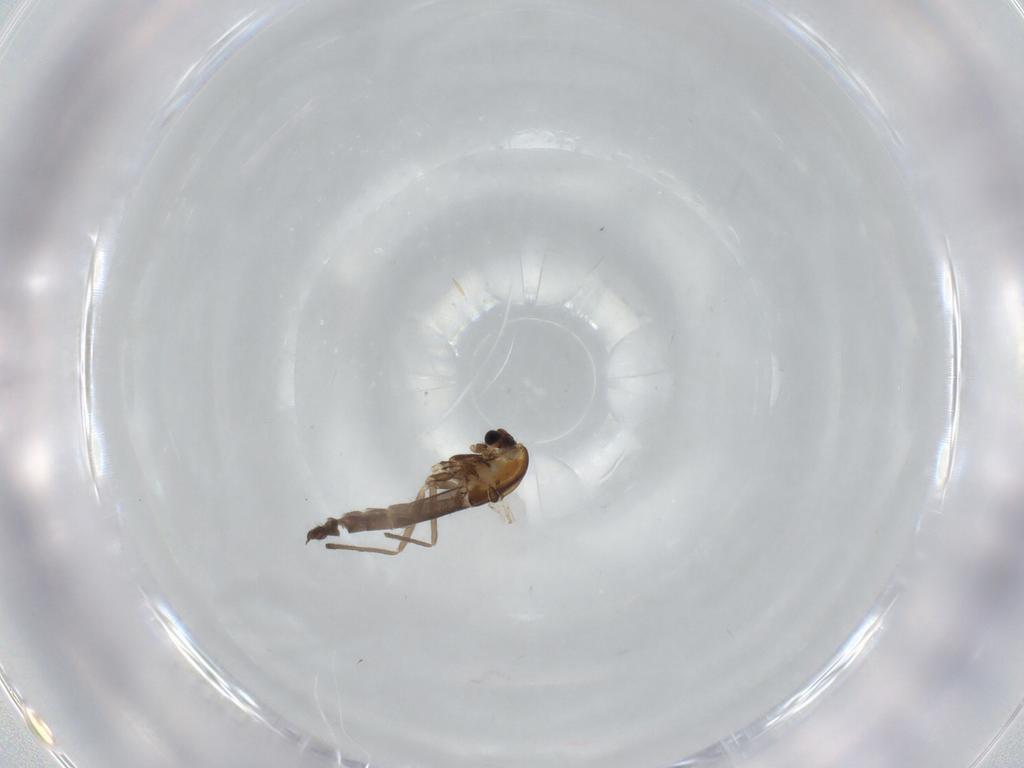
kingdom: Animalia
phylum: Arthropoda
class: Insecta
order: Diptera
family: Chironomidae
